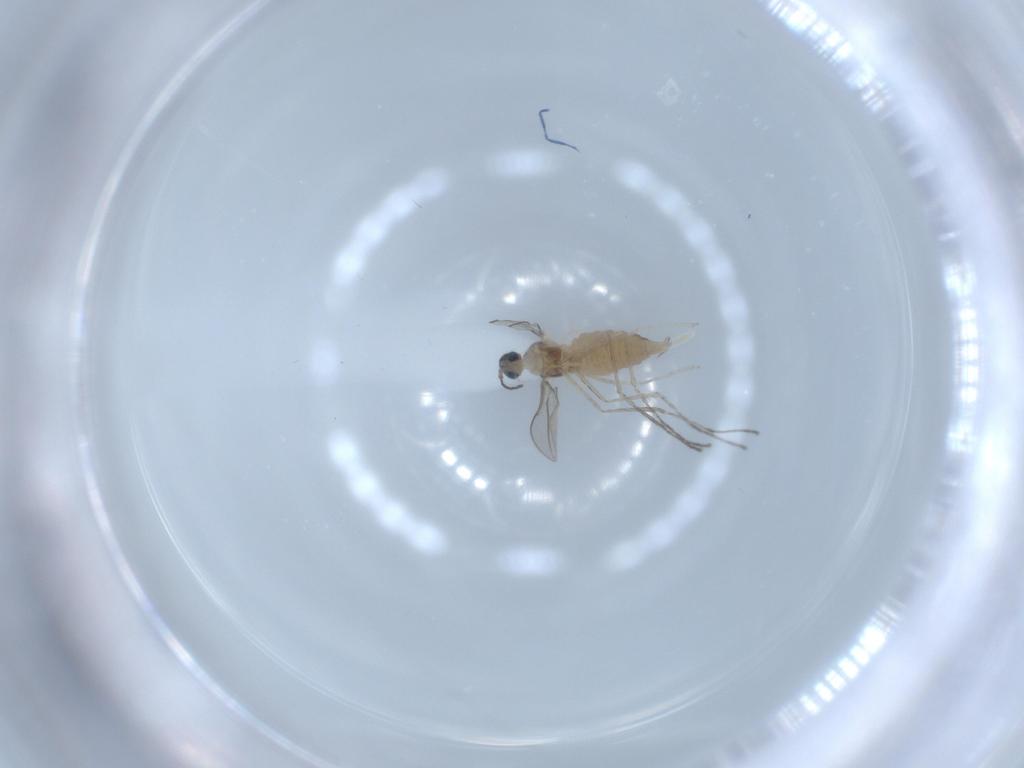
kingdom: Animalia
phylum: Arthropoda
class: Insecta
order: Diptera
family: Cecidomyiidae
